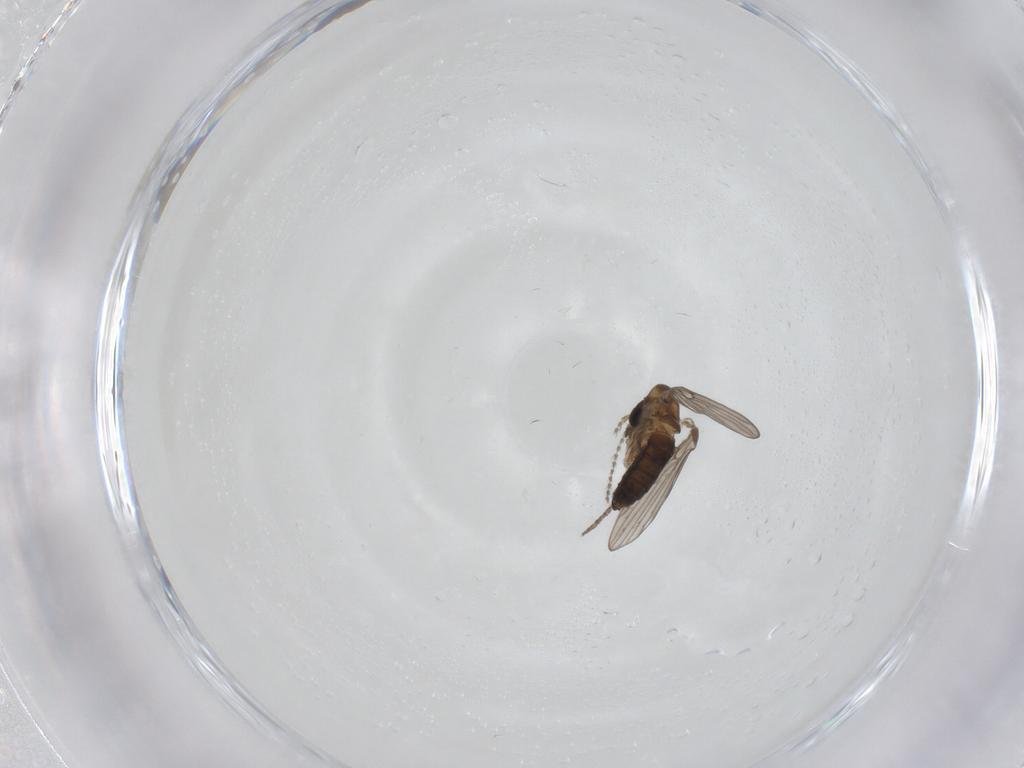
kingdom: Animalia
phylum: Arthropoda
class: Insecta
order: Diptera
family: Psychodidae
